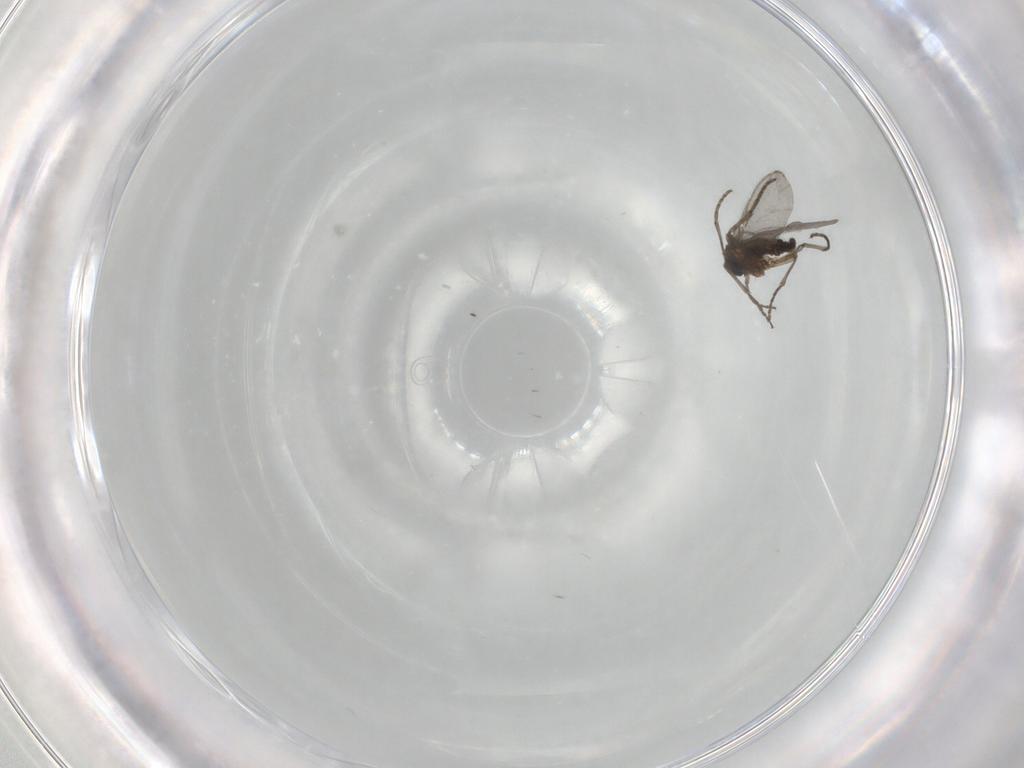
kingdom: Animalia
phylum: Arthropoda
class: Insecta
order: Diptera
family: Sciaridae
